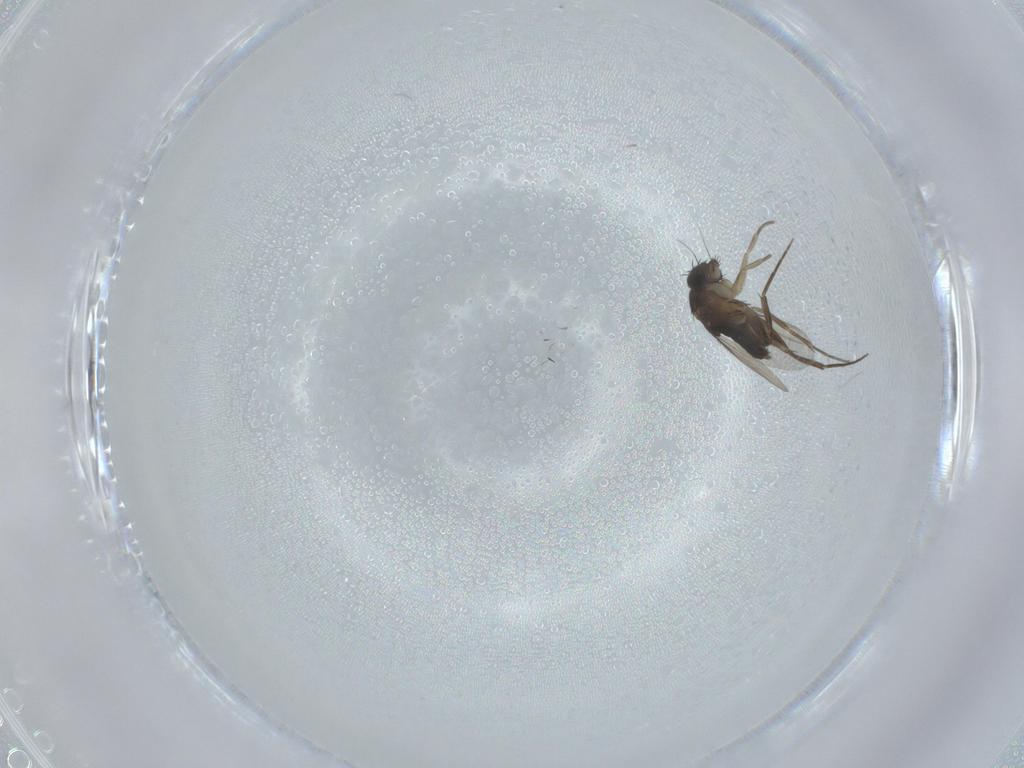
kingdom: Animalia
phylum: Arthropoda
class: Insecta
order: Diptera
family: Phoridae
